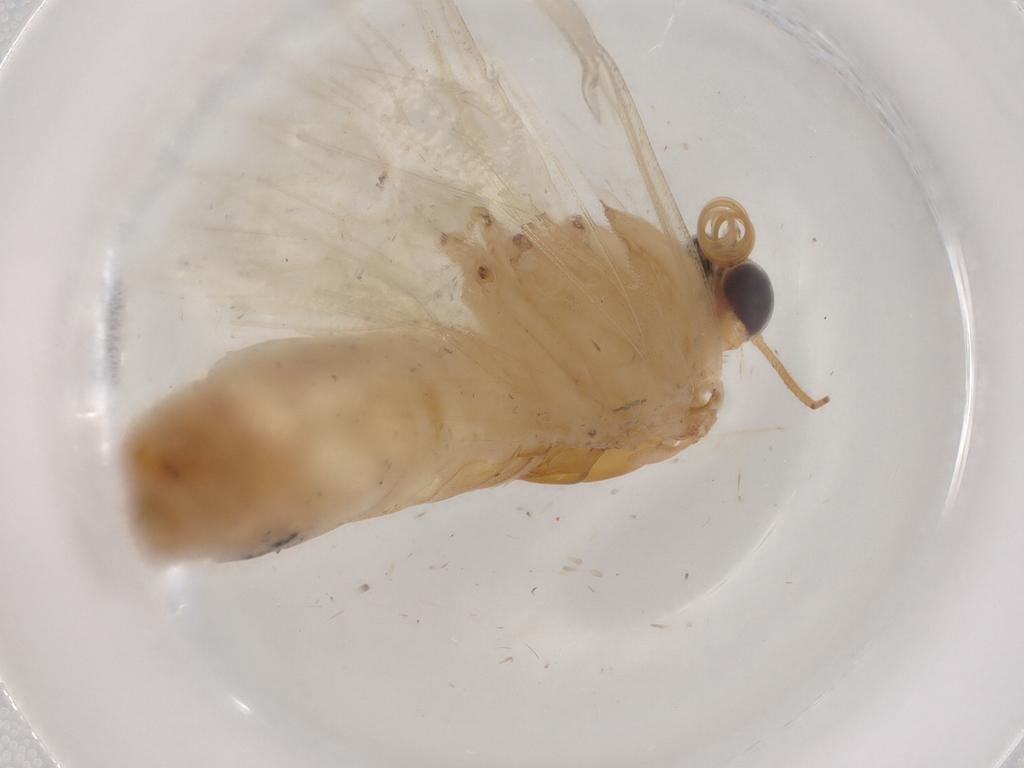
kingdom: Animalia
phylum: Arthropoda
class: Insecta
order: Lepidoptera
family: Geometridae
